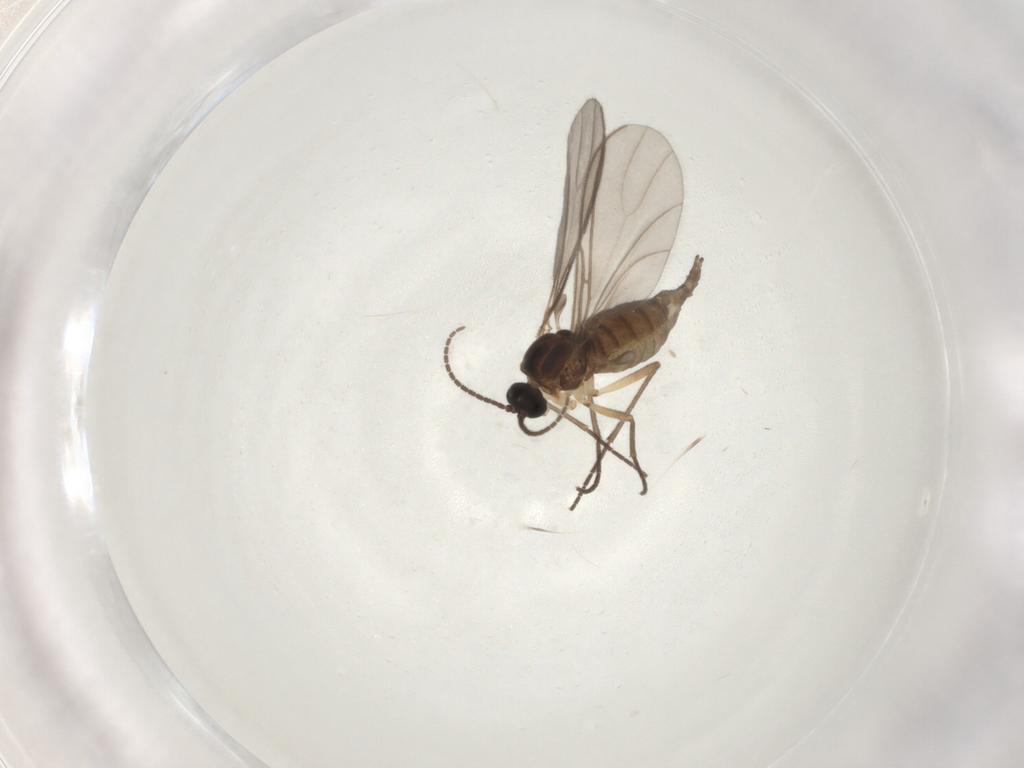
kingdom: Animalia
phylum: Arthropoda
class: Insecta
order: Diptera
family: Sciaridae
